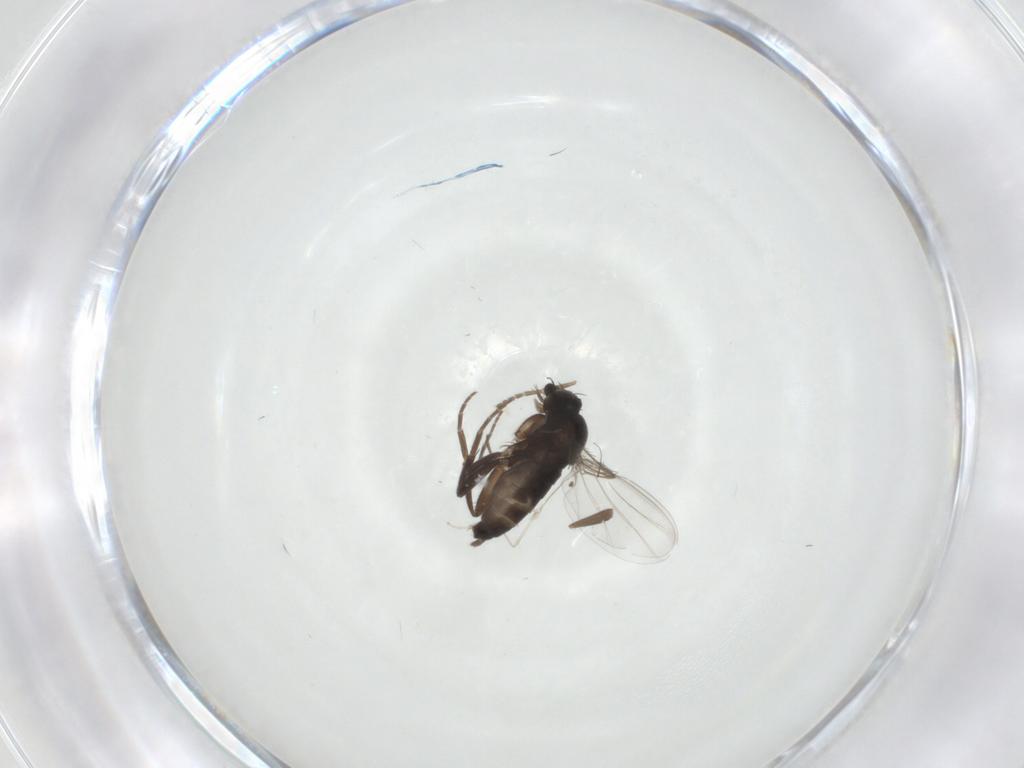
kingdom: Animalia
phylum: Arthropoda
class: Insecta
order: Diptera
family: Cecidomyiidae
